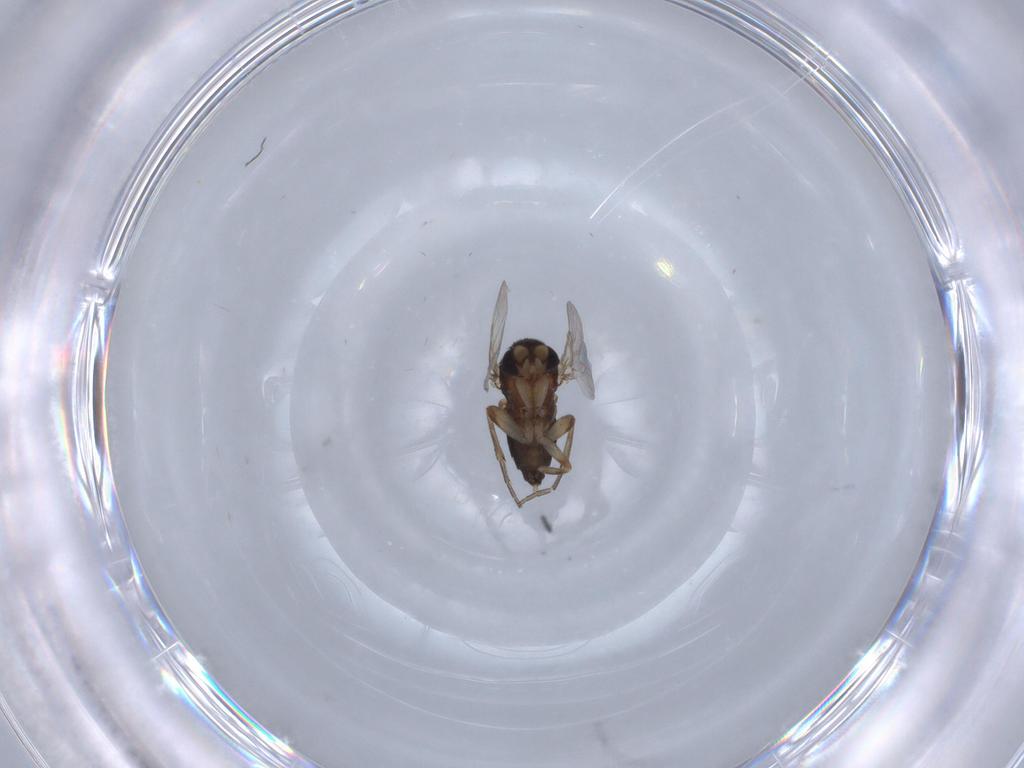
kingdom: Animalia
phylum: Arthropoda
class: Insecta
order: Diptera
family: Phoridae
